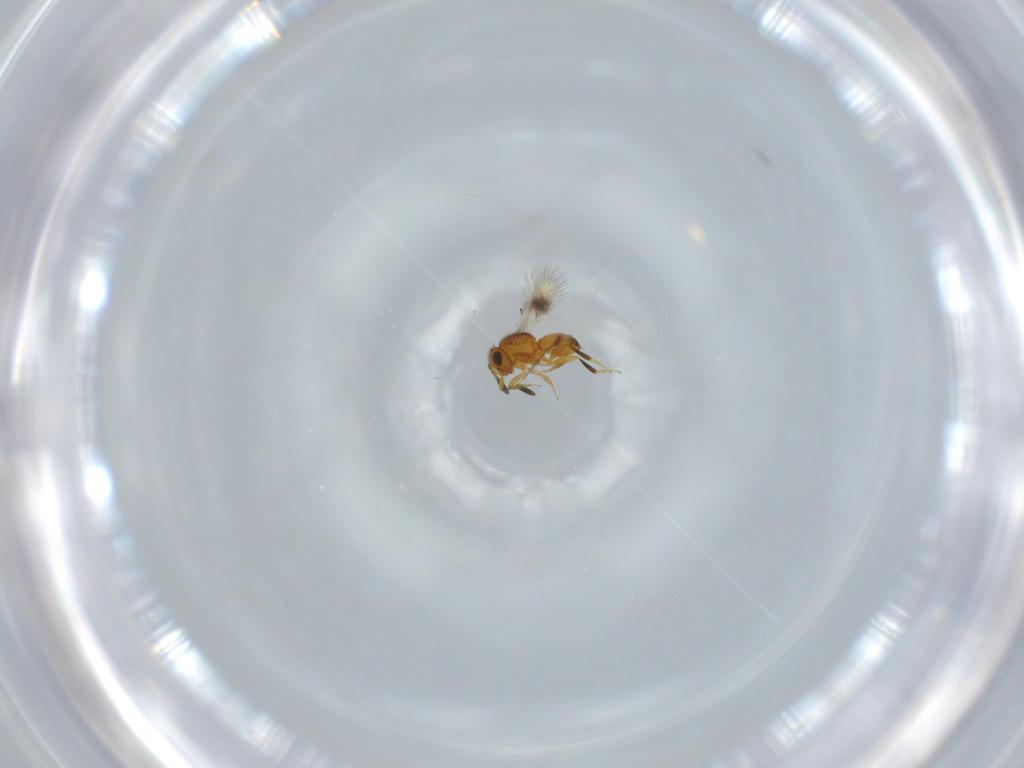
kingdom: Animalia
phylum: Arthropoda
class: Insecta
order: Hymenoptera
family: Scelionidae
